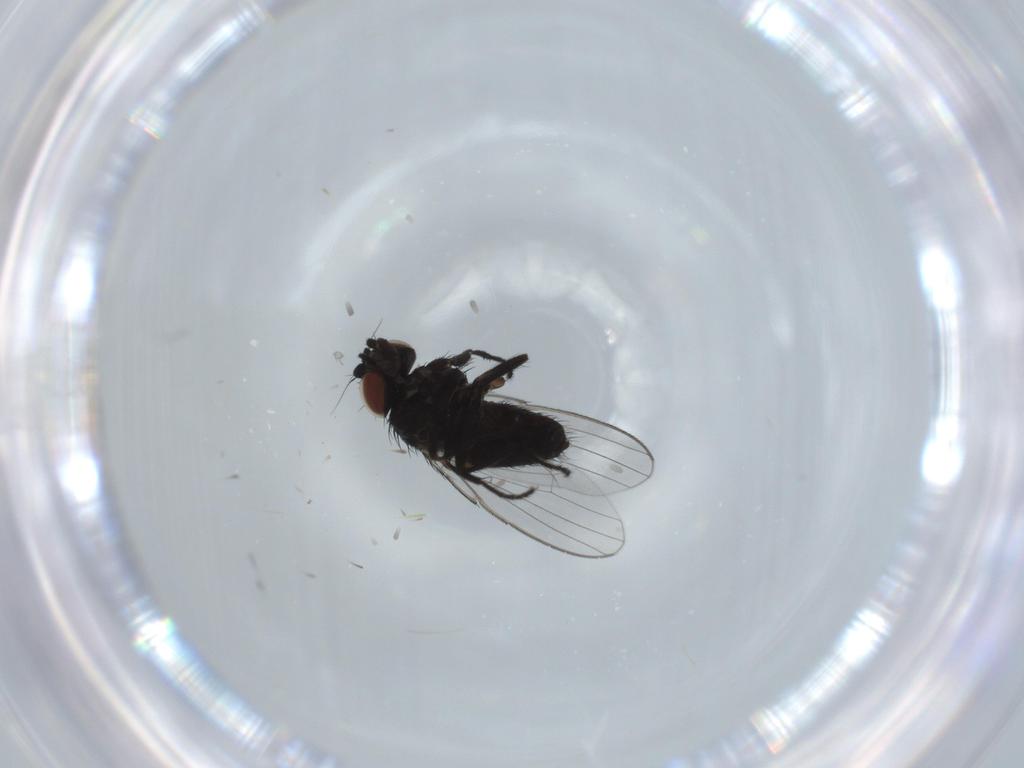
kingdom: Animalia
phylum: Arthropoda
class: Insecta
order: Diptera
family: Milichiidae
